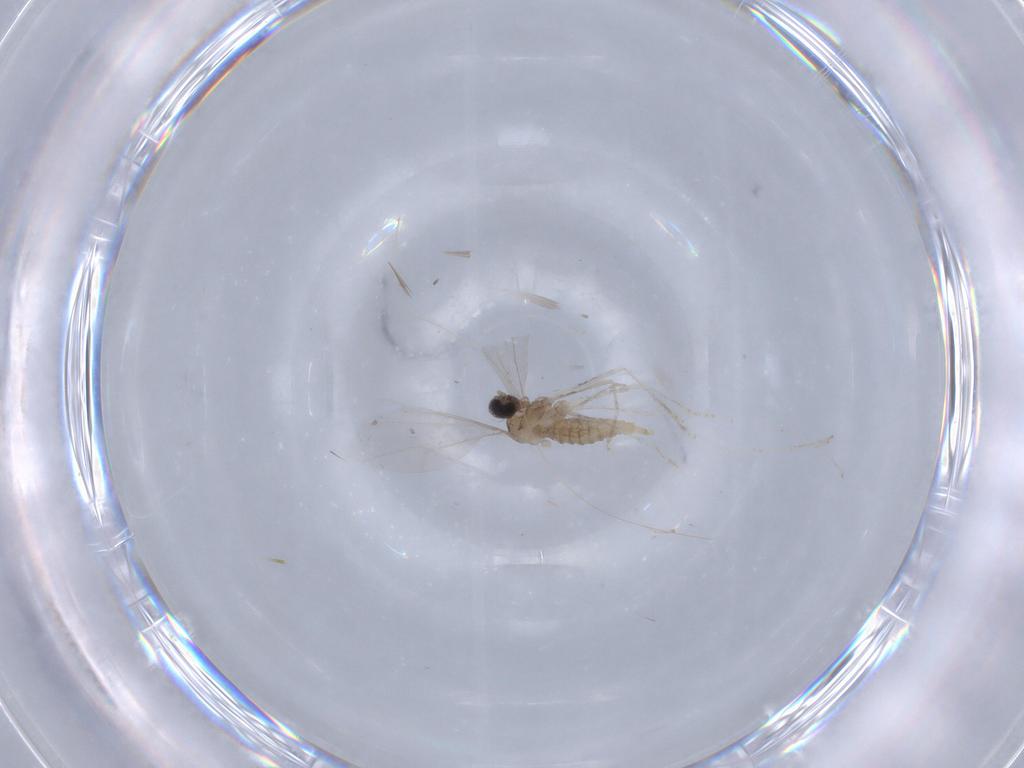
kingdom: Animalia
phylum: Arthropoda
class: Insecta
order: Diptera
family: Cecidomyiidae
